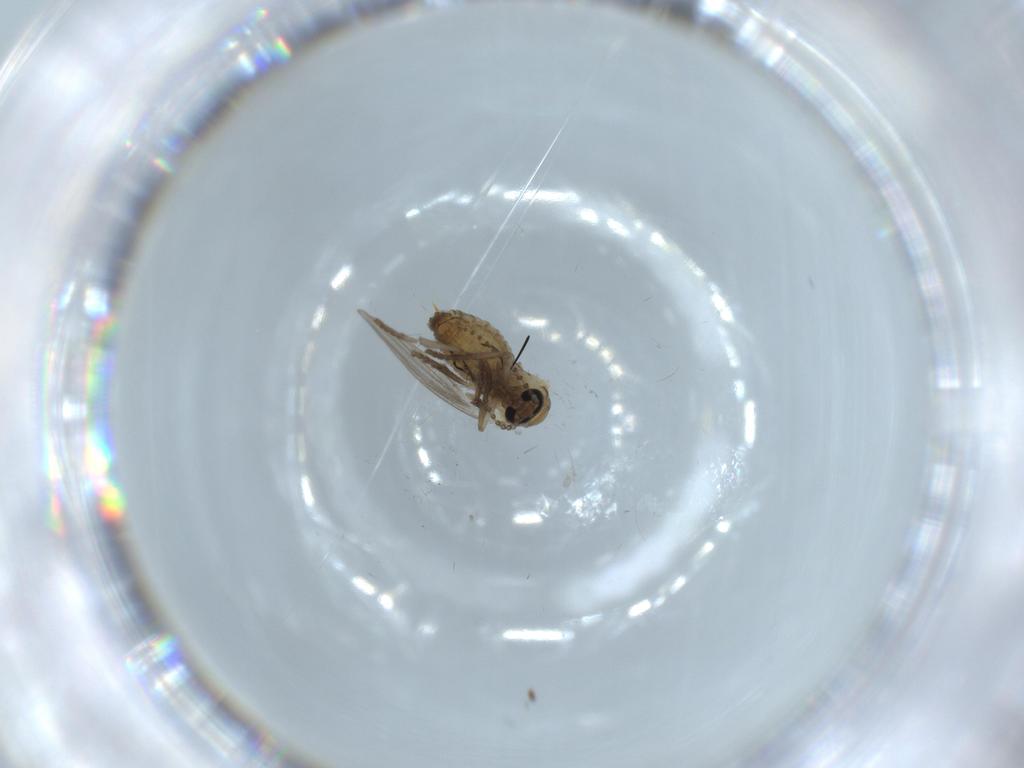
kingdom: Animalia
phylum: Arthropoda
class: Insecta
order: Diptera
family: Psychodidae
